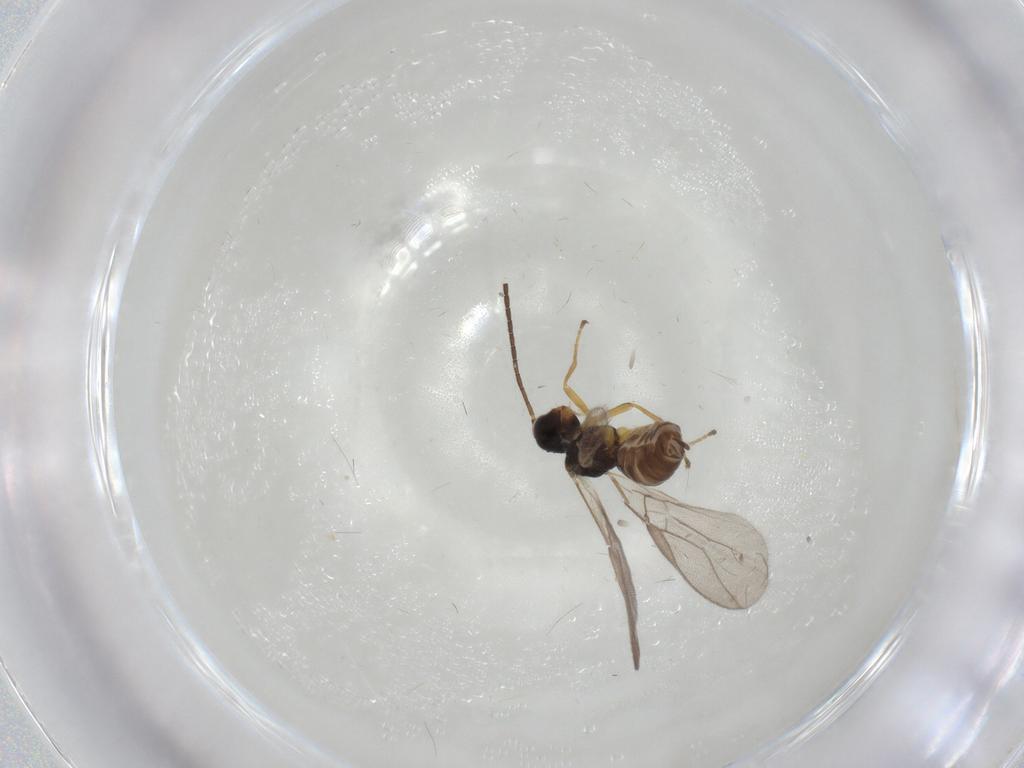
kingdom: Animalia
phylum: Arthropoda
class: Insecta
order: Hymenoptera
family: Braconidae
